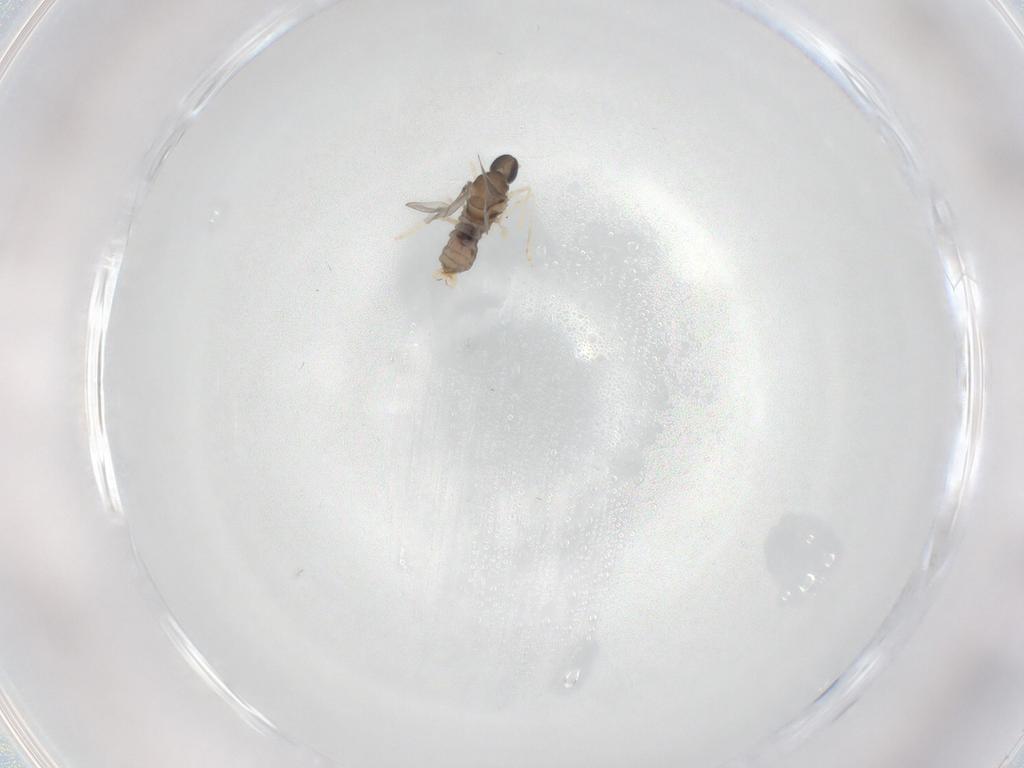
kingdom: Animalia
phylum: Arthropoda
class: Insecta
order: Diptera
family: Cecidomyiidae
